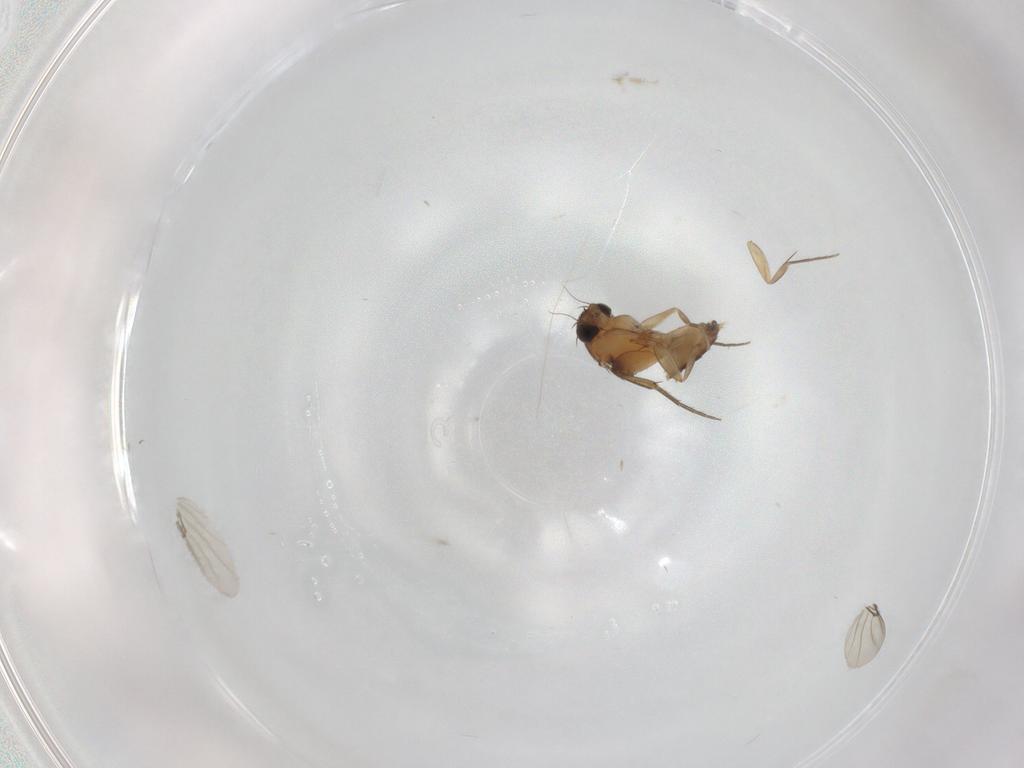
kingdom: Animalia
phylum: Arthropoda
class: Insecta
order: Diptera
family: Phoridae
